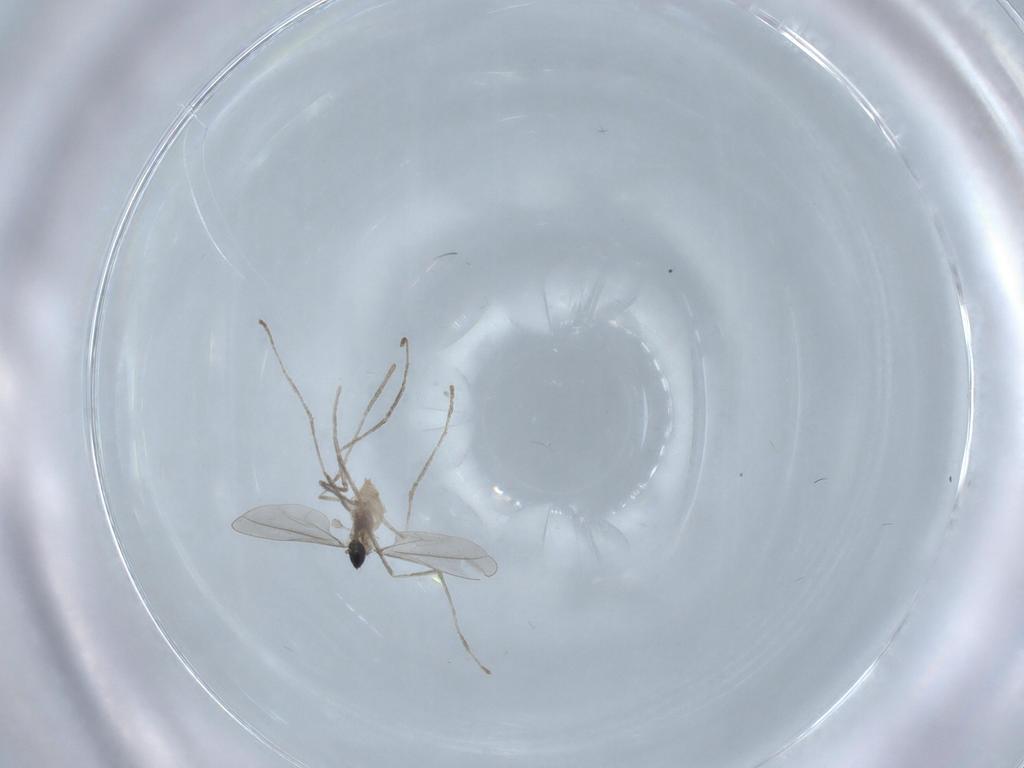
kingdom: Animalia
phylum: Arthropoda
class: Insecta
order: Diptera
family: Cecidomyiidae
